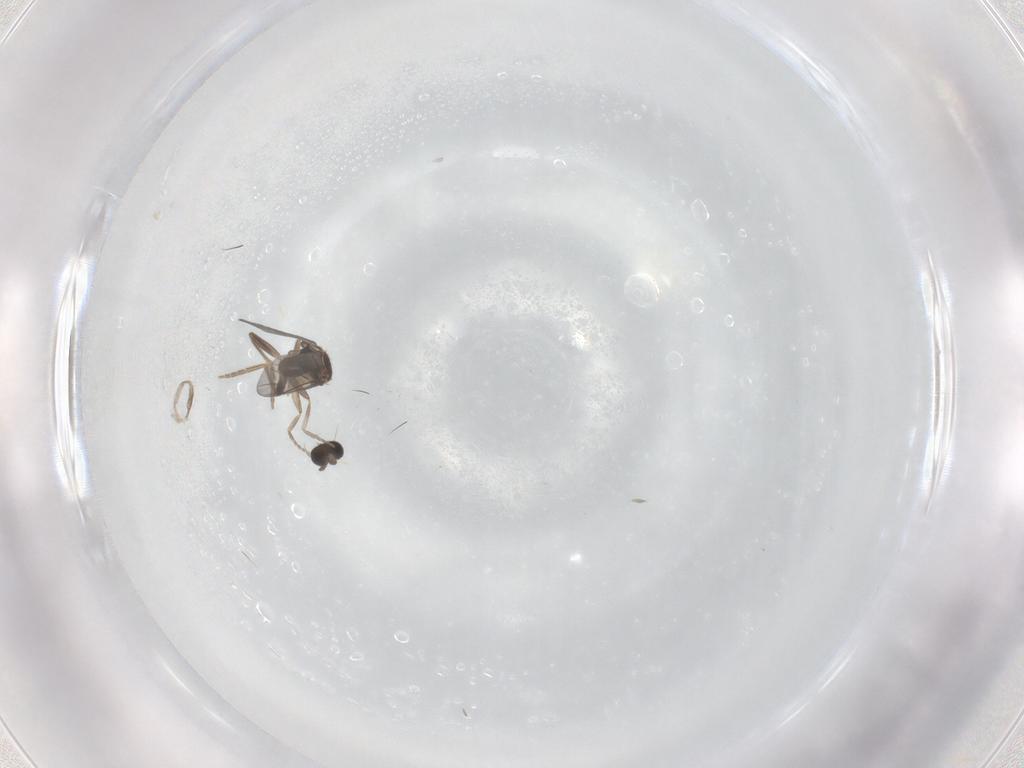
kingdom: Animalia
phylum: Arthropoda
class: Insecta
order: Diptera
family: Cecidomyiidae
